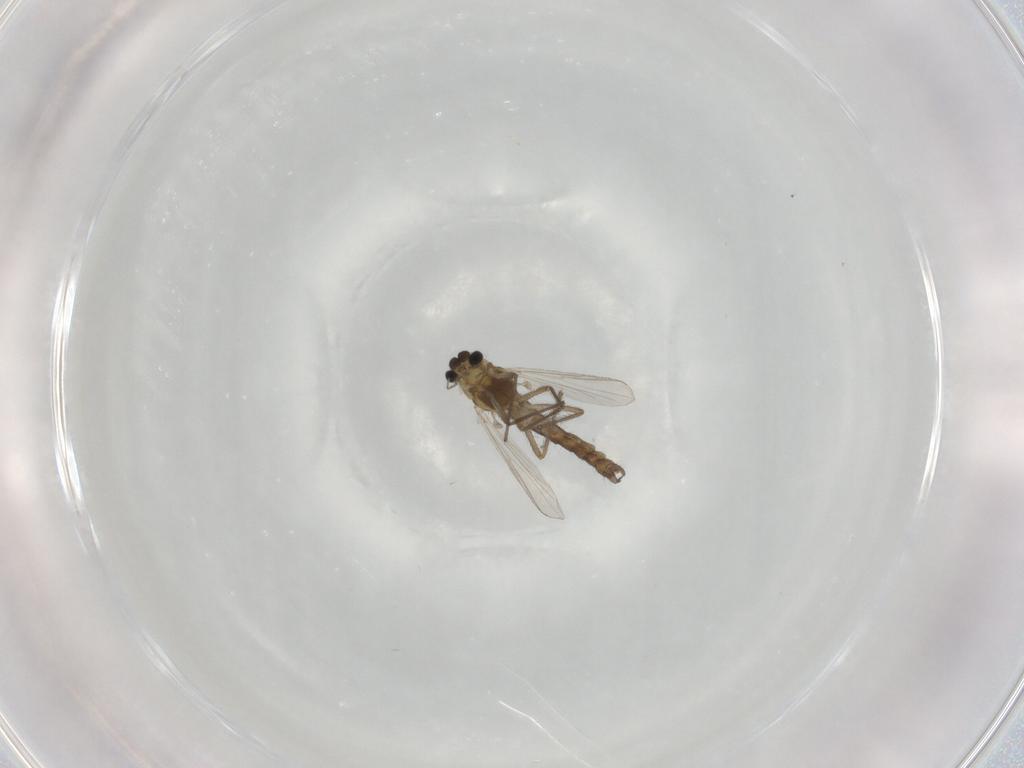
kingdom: Animalia
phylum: Arthropoda
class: Insecta
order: Diptera
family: Chironomidae
